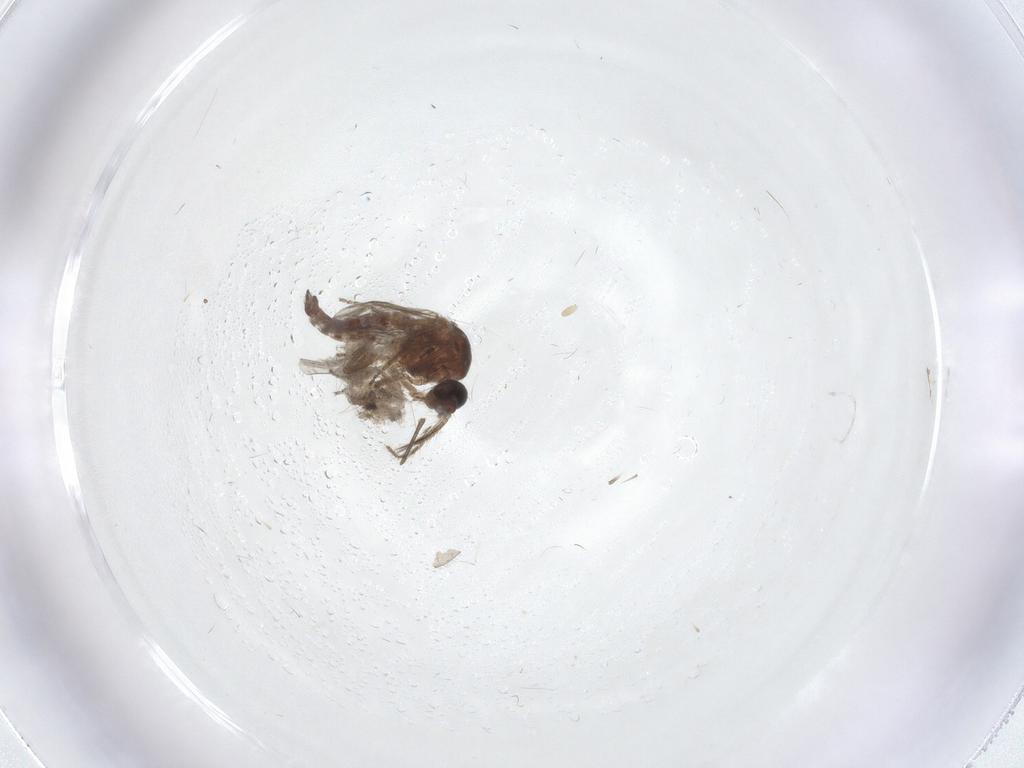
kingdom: Animalia
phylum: Arthropoda
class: Insecta
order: Diptera
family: Ceratopogonidae
